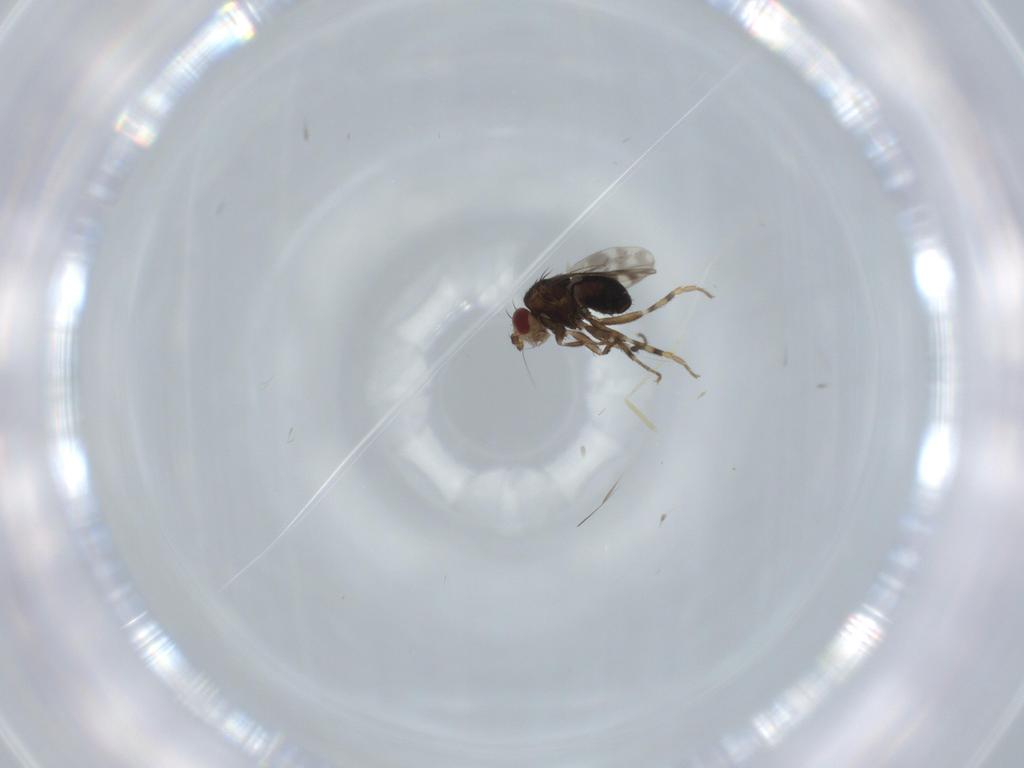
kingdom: Animalia
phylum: Arthropoda
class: Insecta
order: Diptera
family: Sphaeroceridae
